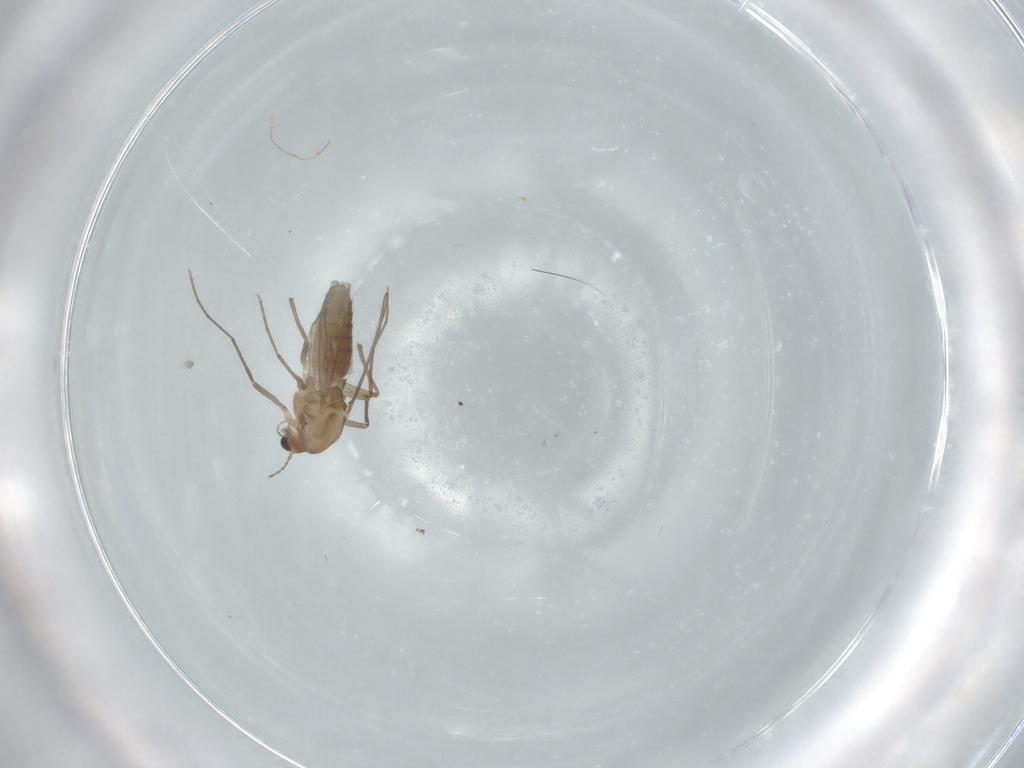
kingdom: Animalia
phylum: Arthropoda
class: Insecta
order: Diptera
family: Chironomidae
